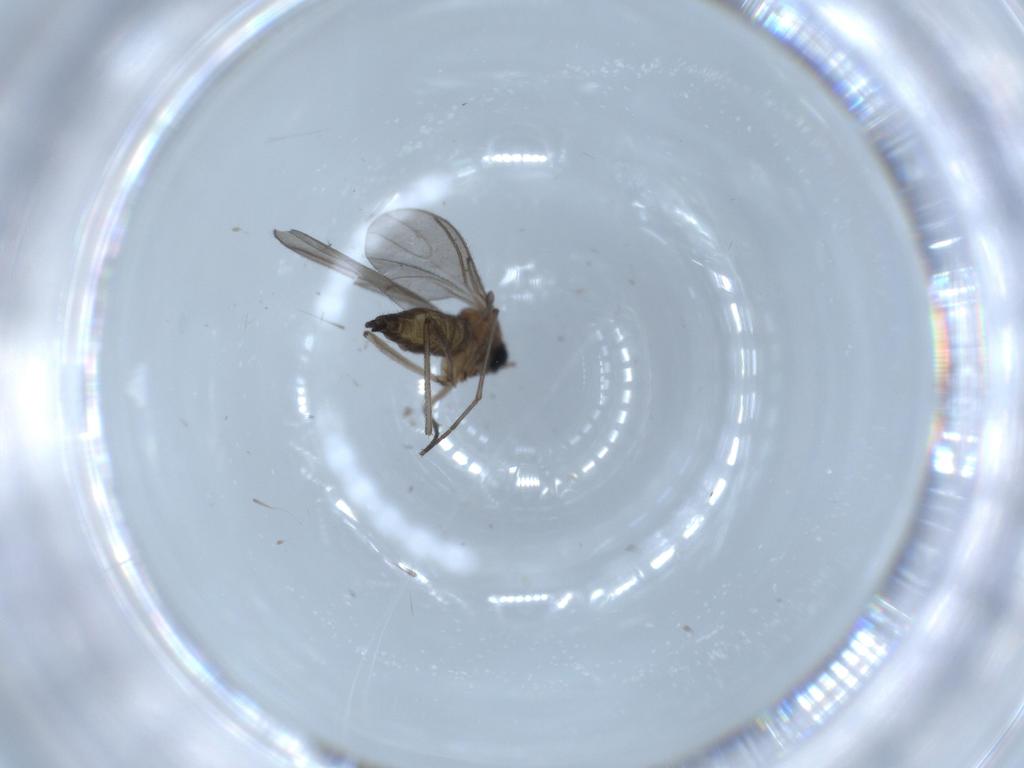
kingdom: Animalia
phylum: Arthropoda
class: Insecta
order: Diptera
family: Sciaridae
